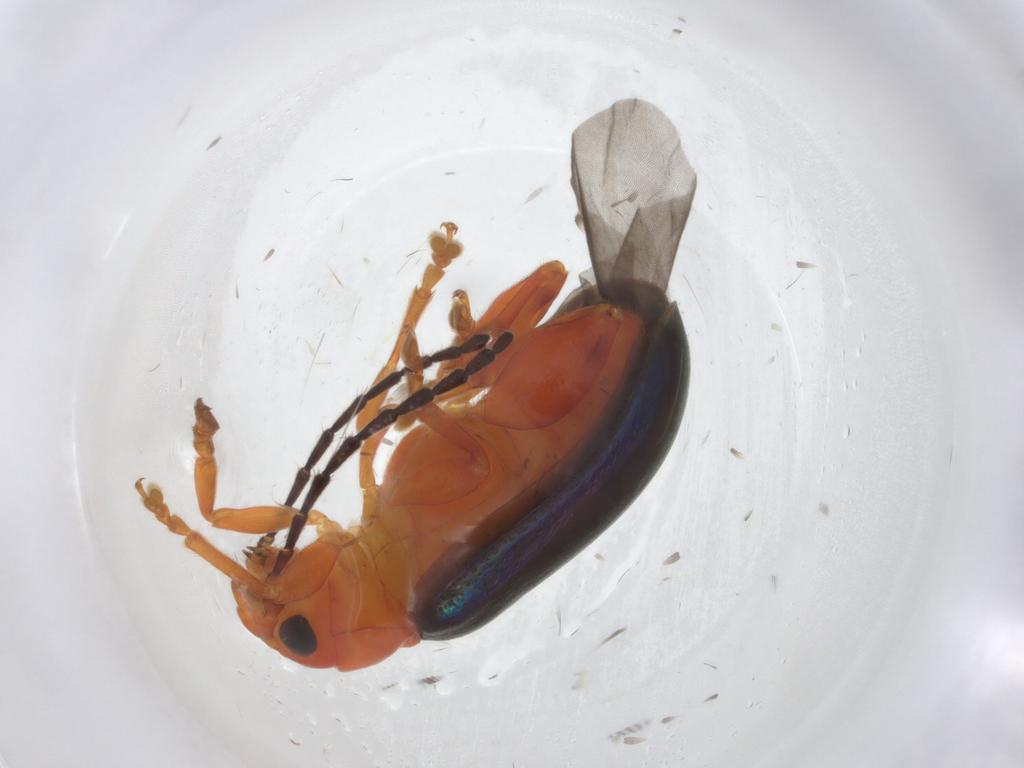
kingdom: Animalia
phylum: Arthropoda
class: Insecta
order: Coleoptera
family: Chrysomelidae
